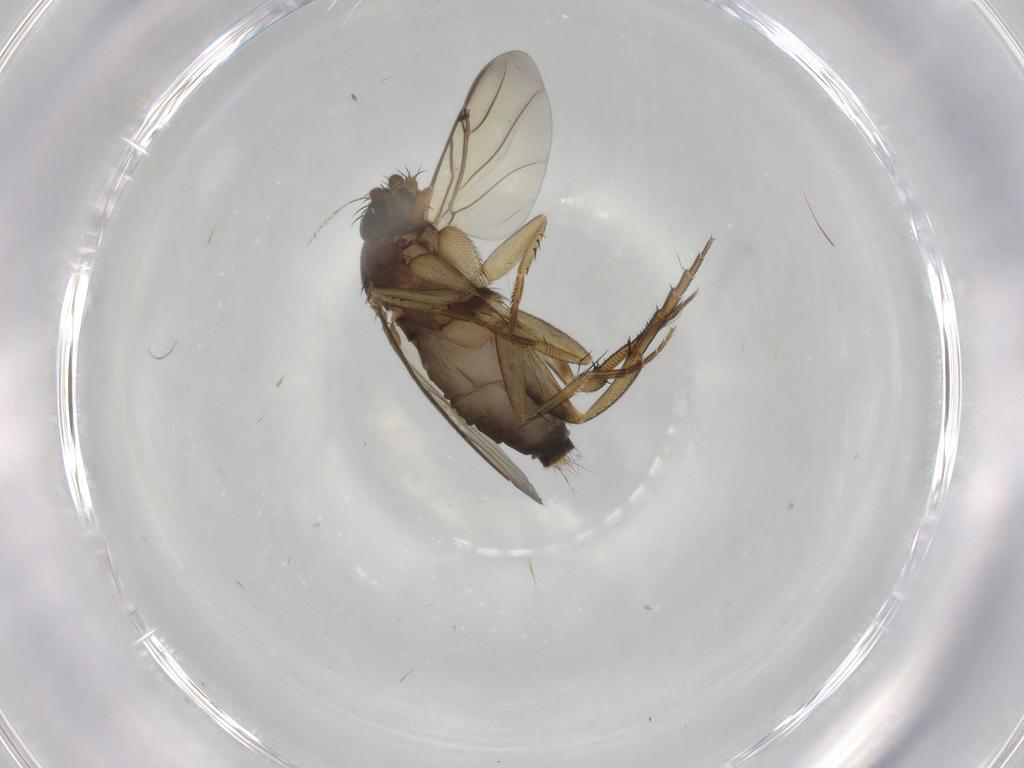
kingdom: Animalia
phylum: Arthropoda
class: Insecta
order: Diptera
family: Phoridae
